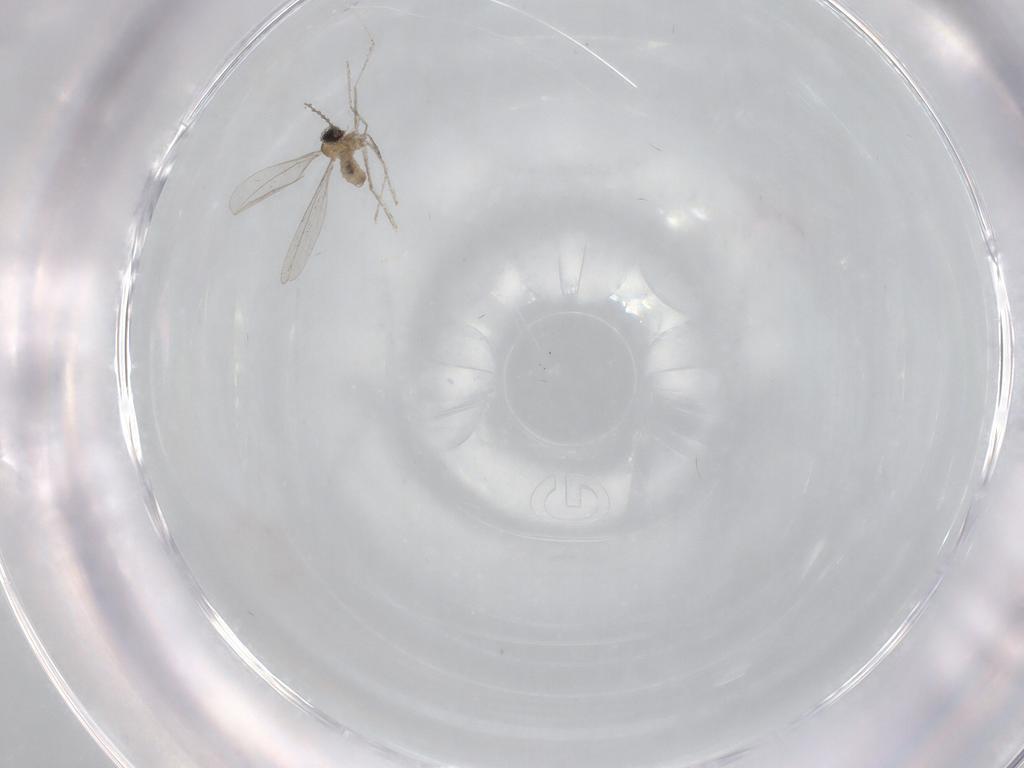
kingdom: Animalia
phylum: Arthropoda
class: Insecta
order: Diptera
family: Cecidomyiidae
